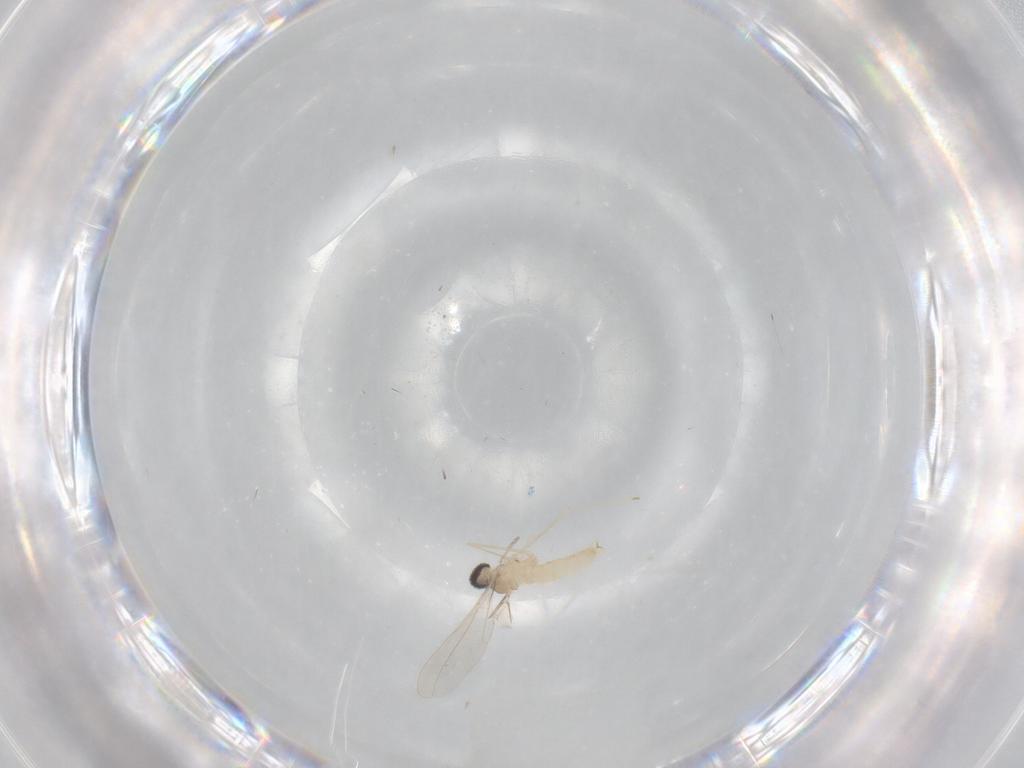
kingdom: Animalia
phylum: Arthropoda
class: Insecta
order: Diptera
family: Cecidomyiidae
